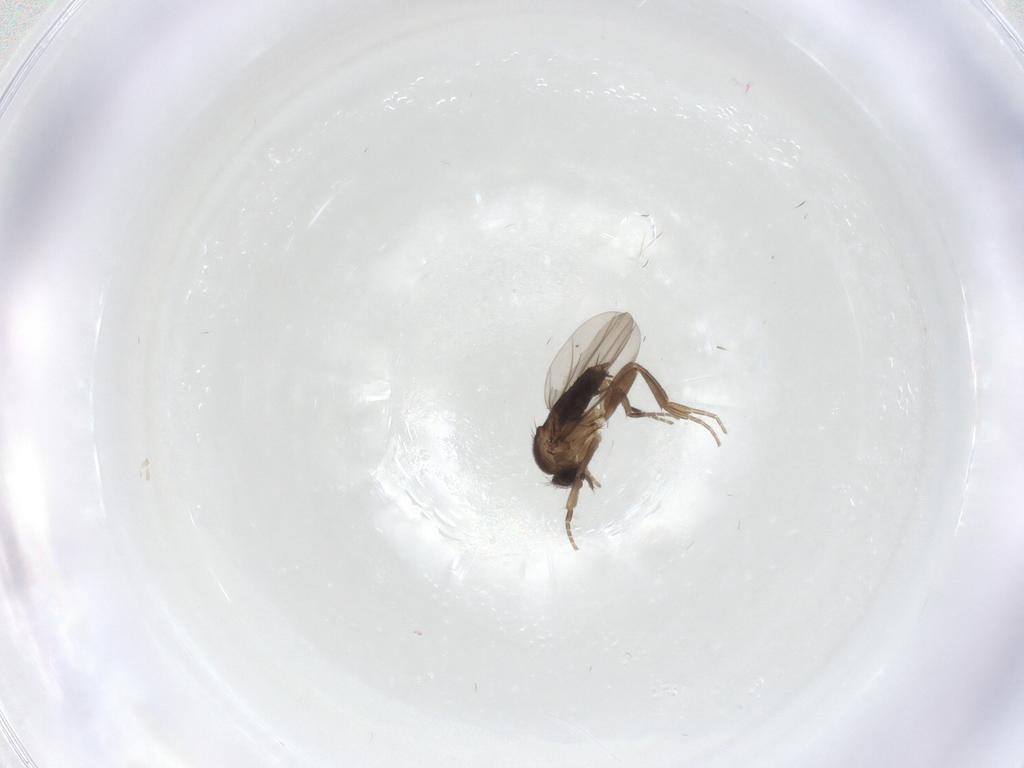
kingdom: Animalia
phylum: Arthropoda
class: Insecta
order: Diptera
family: Phoridae
